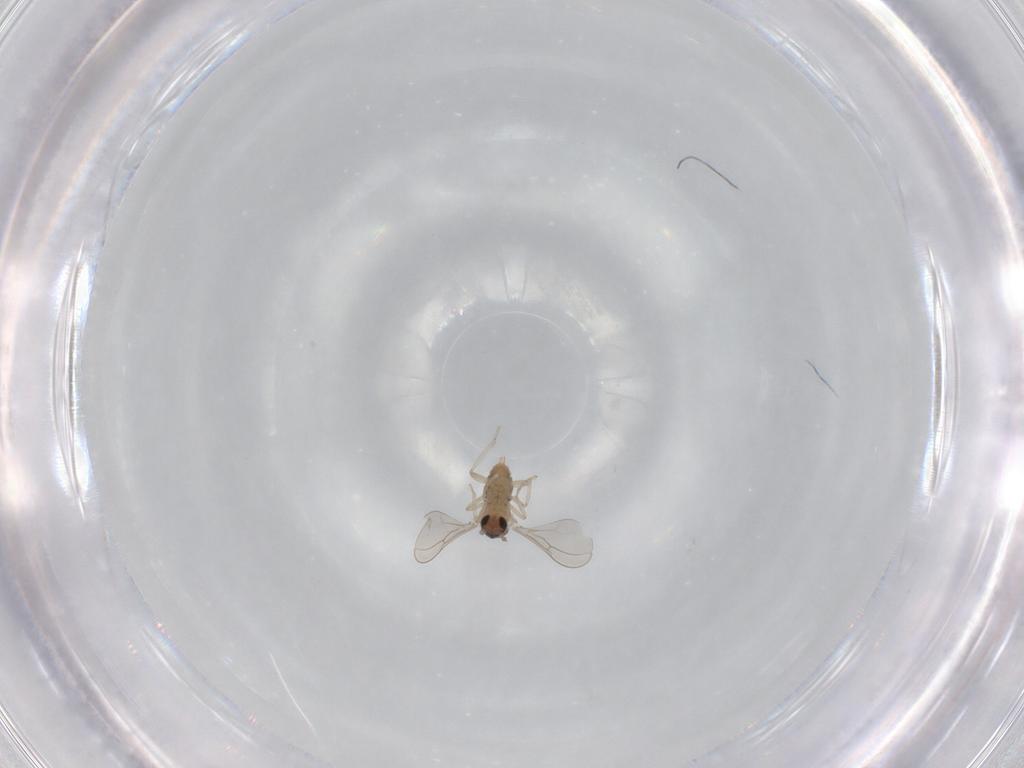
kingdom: Animalia
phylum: Arthropoda
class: Insecta
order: Diptera
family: Cecidomyiidae
